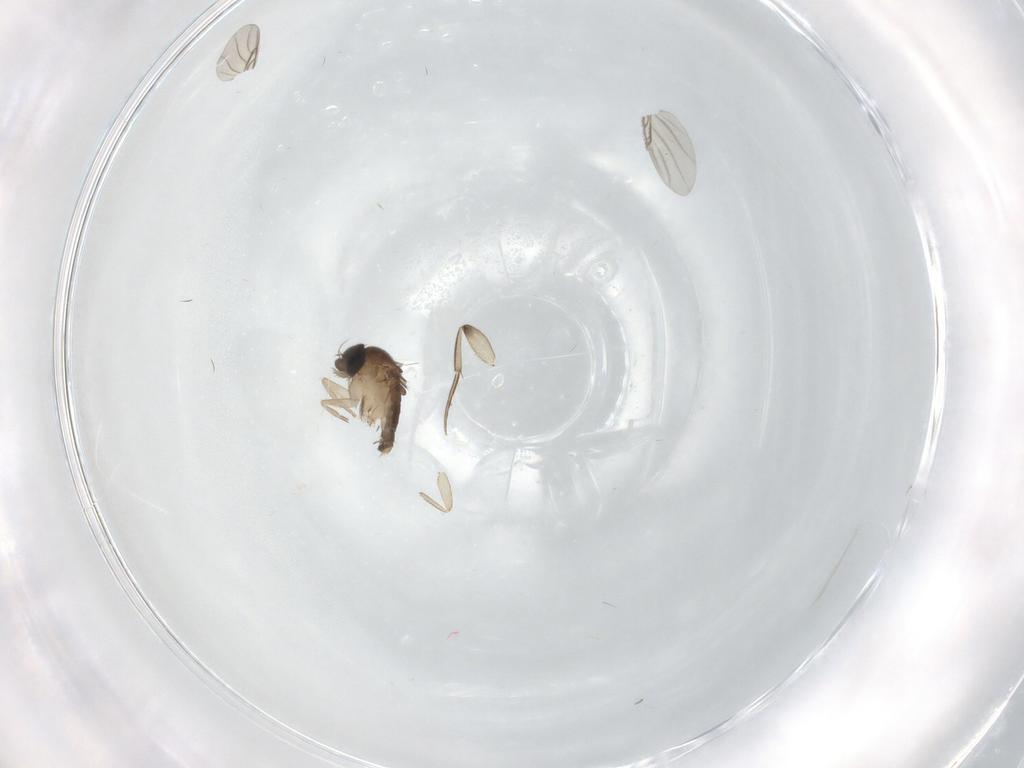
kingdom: Animalia
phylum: Arthropoda
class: Insecta
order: Diptera
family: Phoridae
